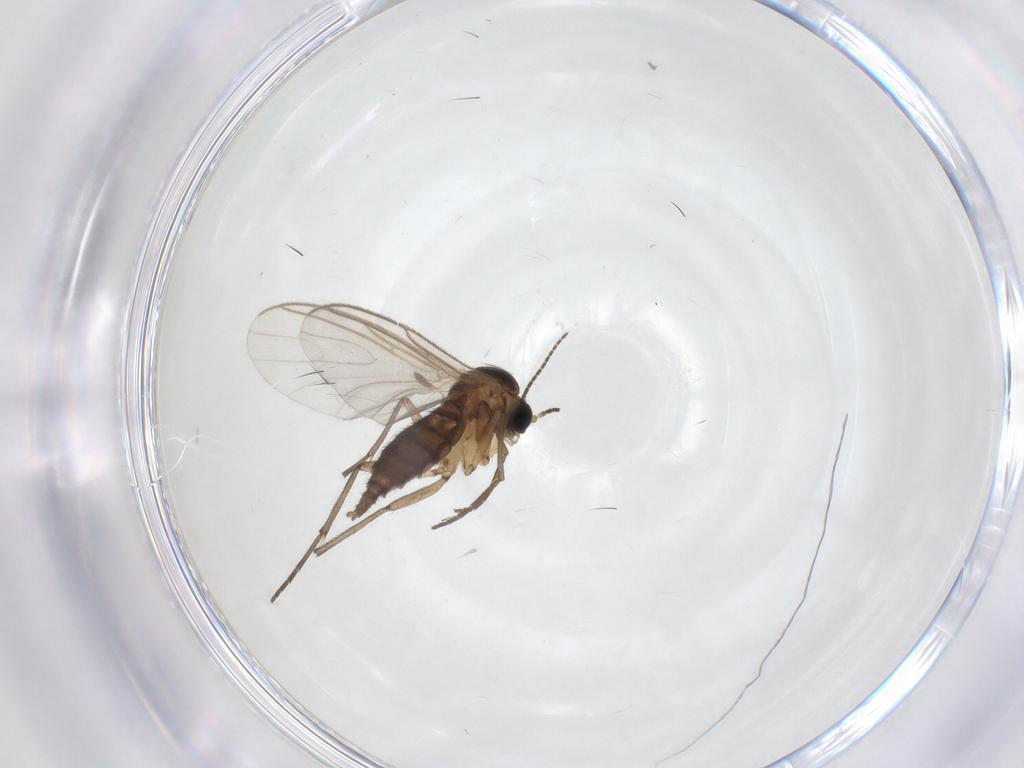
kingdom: Animalia
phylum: Arthropoda
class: Insecta
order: Diptera
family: Sciaridae
